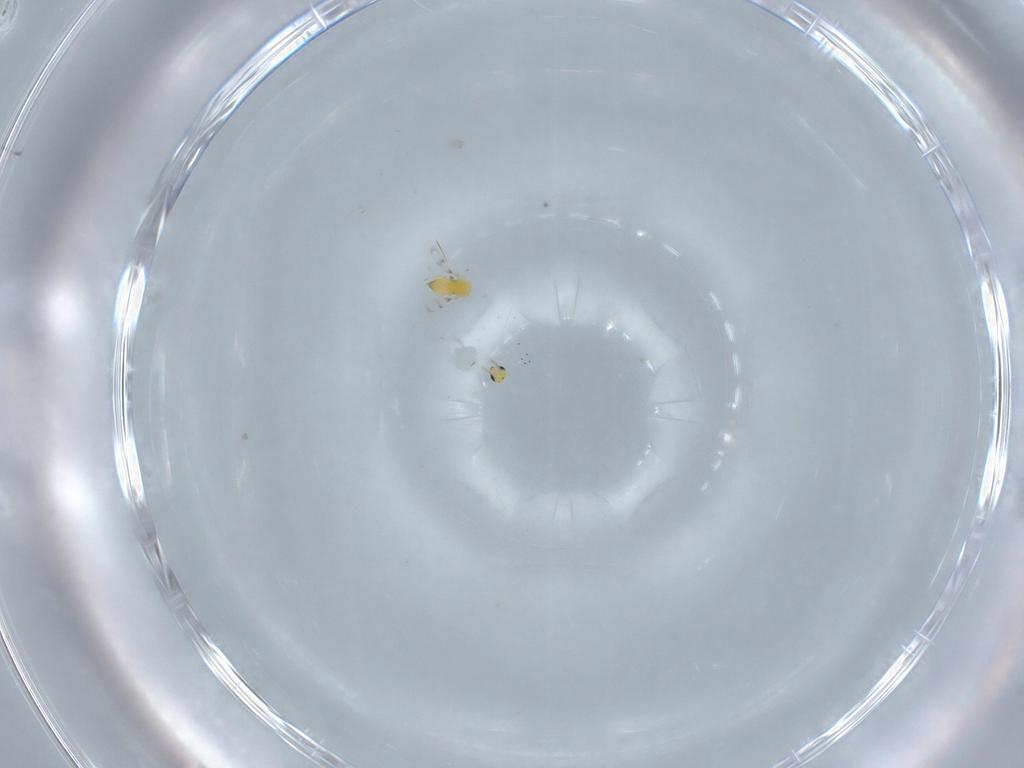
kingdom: Animalia
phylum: Arthropoda
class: Insecta
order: Hymenoptera
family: Trichogrammatidae
